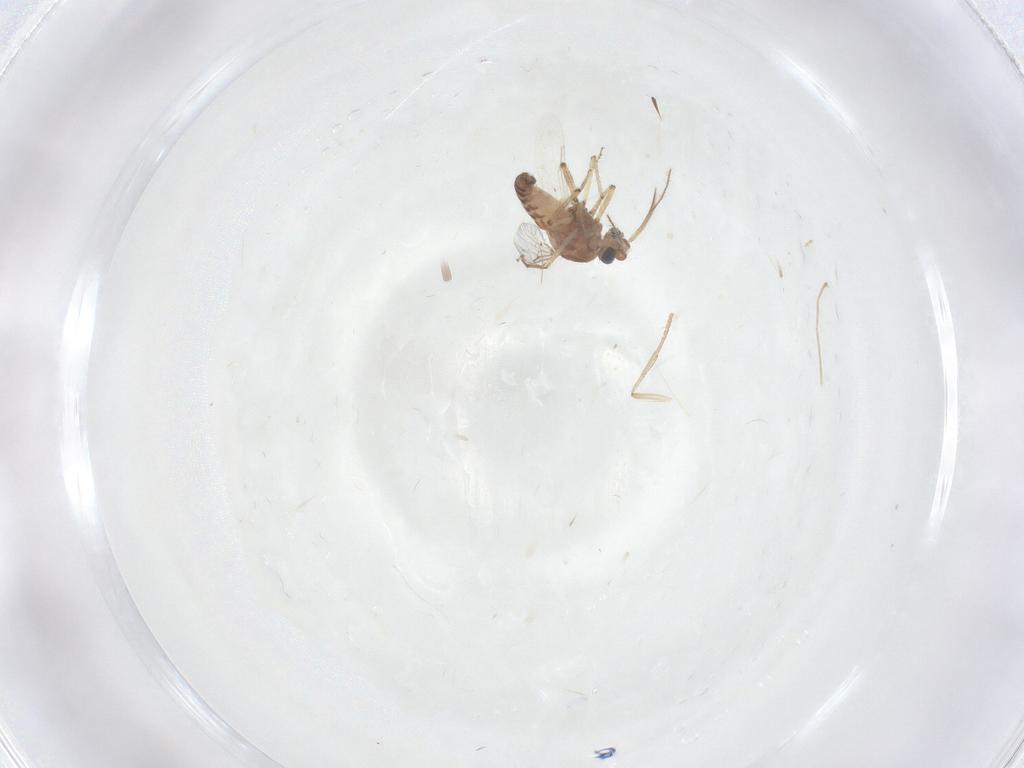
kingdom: Animalia
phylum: Arthropoda
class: Insecta
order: Diptera
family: Ceratopogonidae
